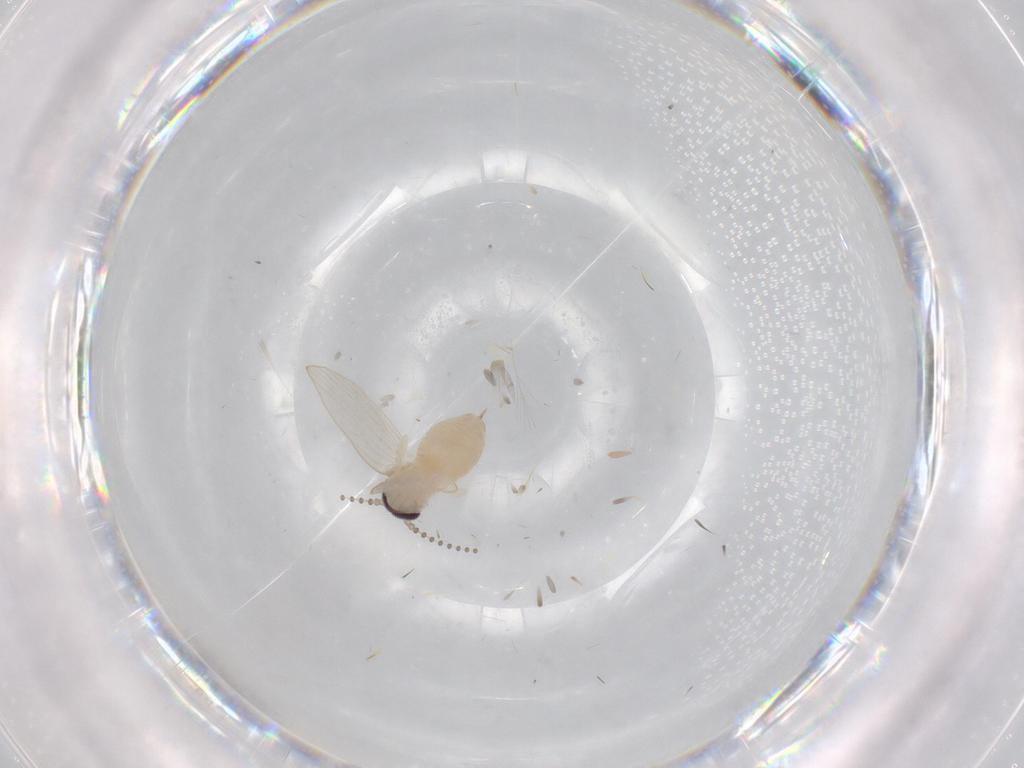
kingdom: Animalia
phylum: Arthropoda
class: Insecta
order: Diptera
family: Psychodidae
